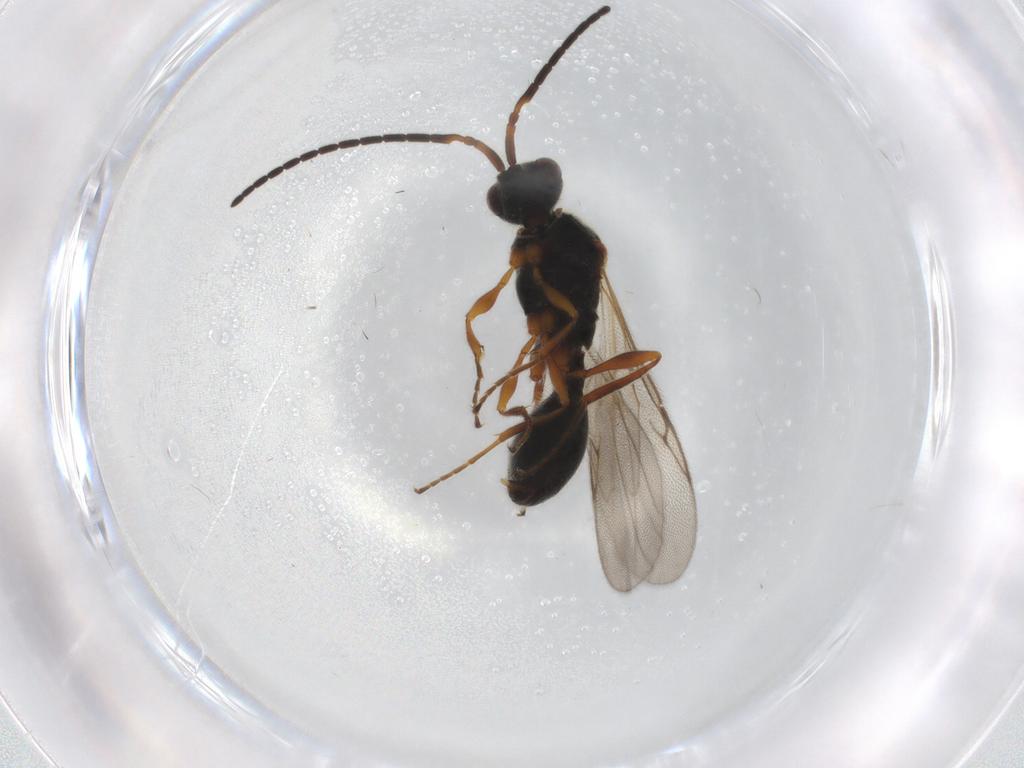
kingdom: Animalia
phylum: Arthropoda
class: Insecta
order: Hymenoptera
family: Diapriidae
